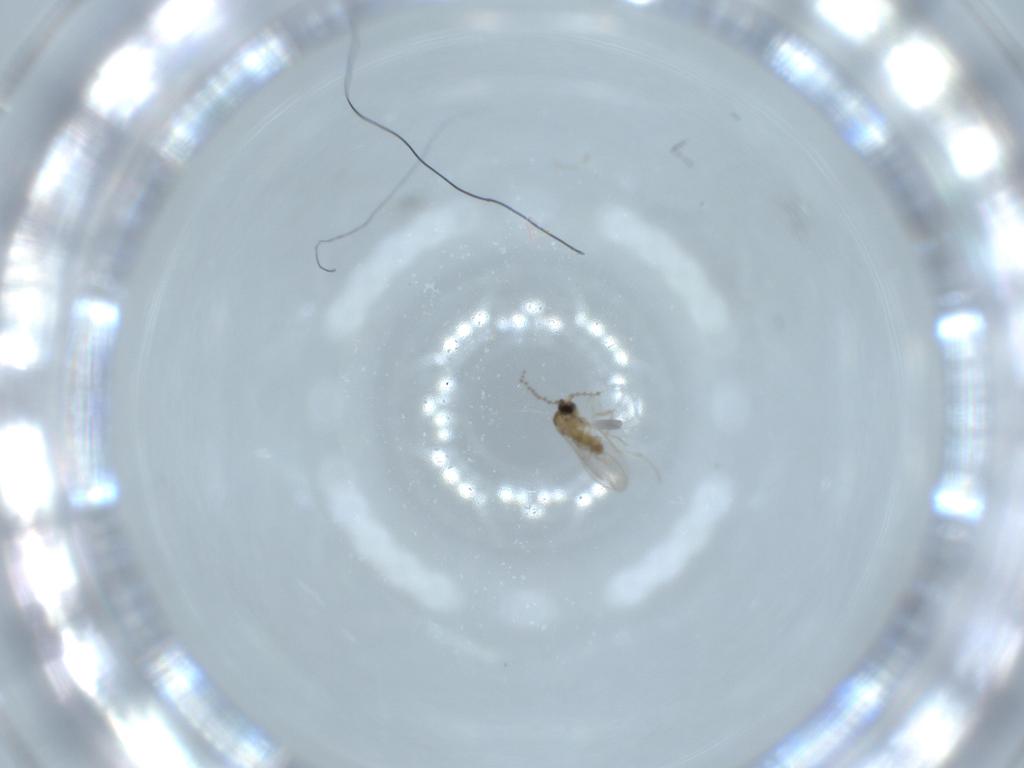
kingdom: Animalia
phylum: Arthropoda
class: Insecta
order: Diptera
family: Cecidomyiidae
